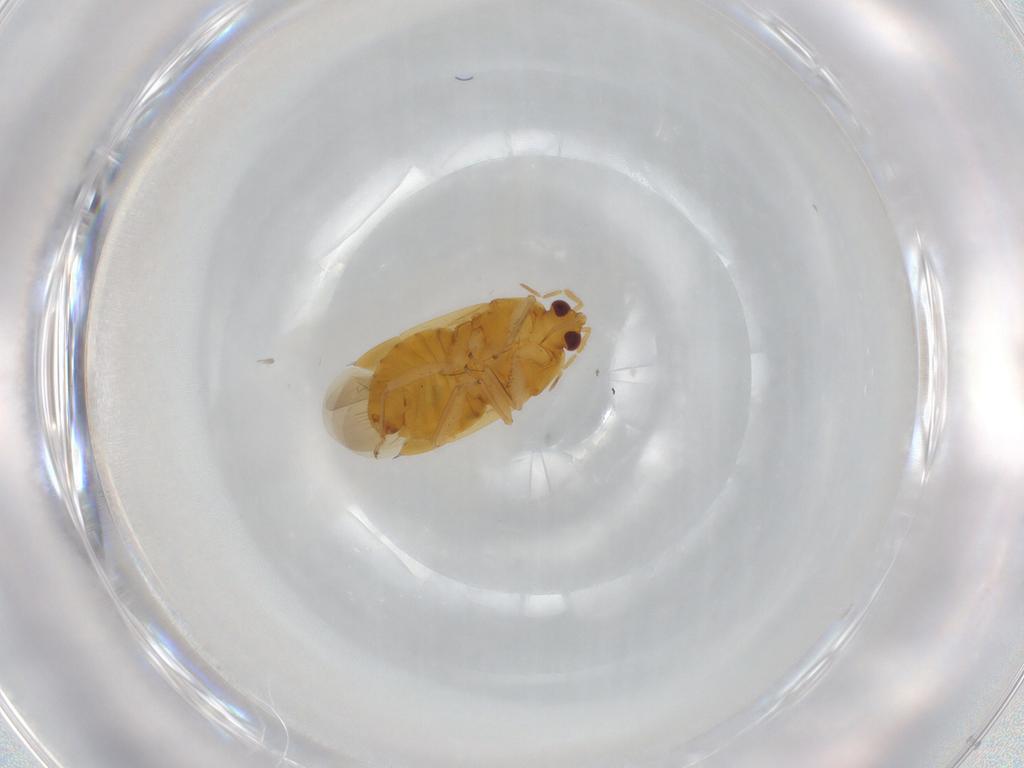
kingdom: Animalia
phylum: Arthropoda
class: Insecta
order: Hemiptera
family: Anthocoridae
